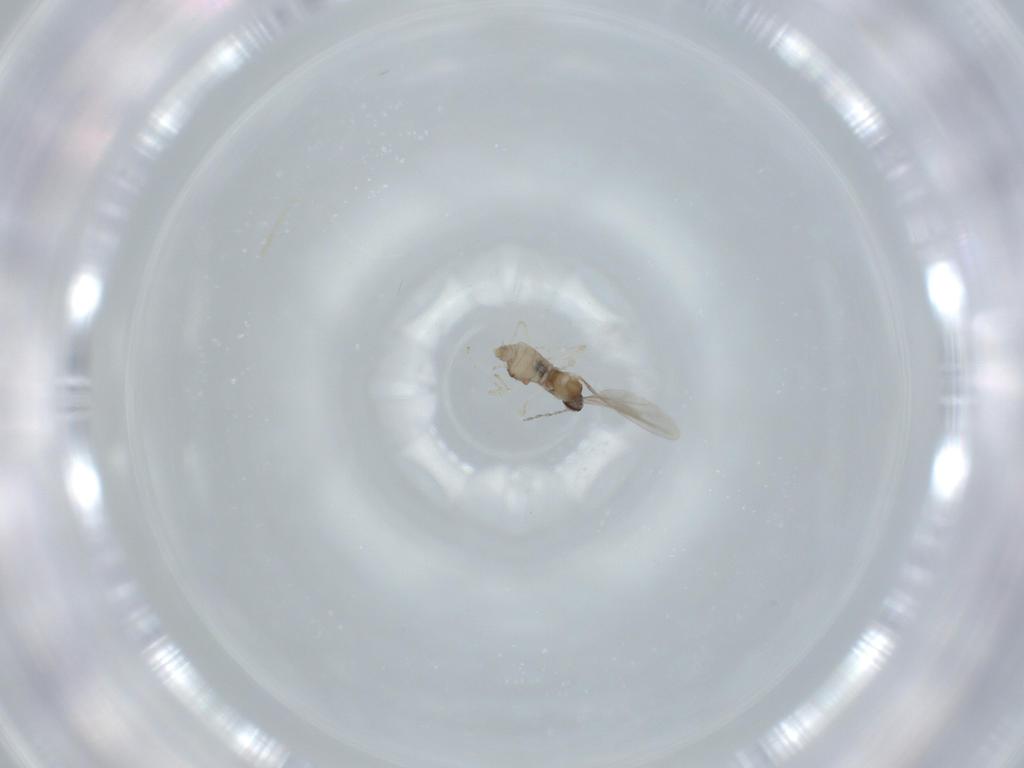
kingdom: Animalia
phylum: Arthropoda
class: Insecta
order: Diptera
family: Cecidomyiidae
